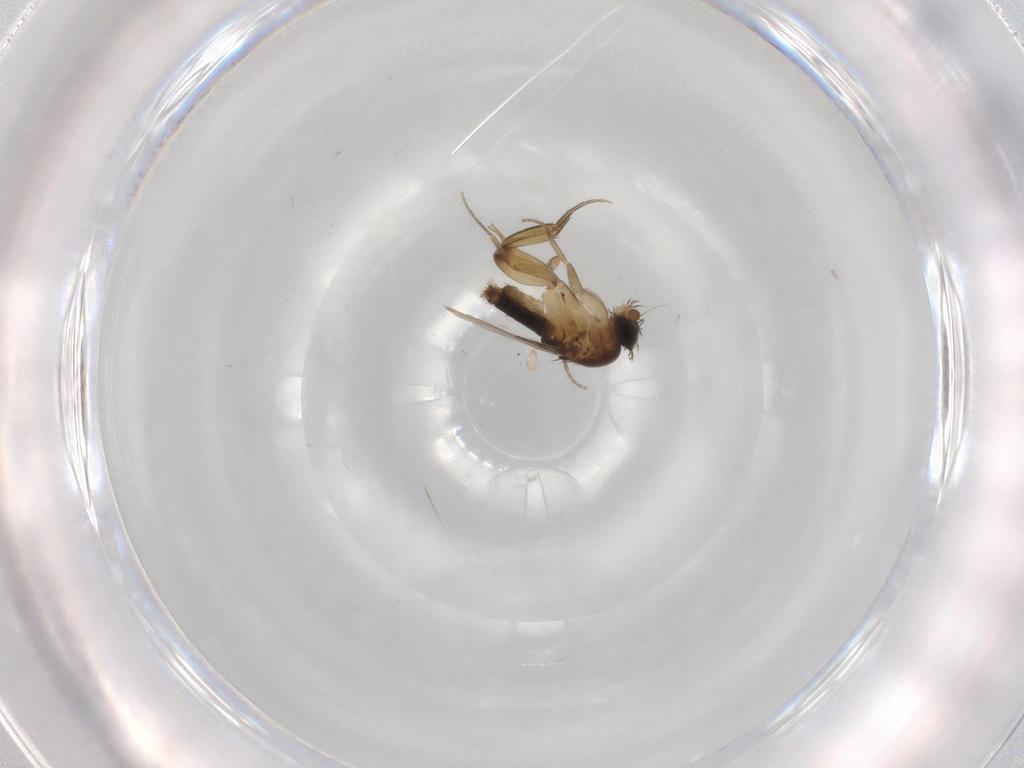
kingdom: Animalia
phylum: Arthropoda
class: Insecta
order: Diptera
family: Phoridae
